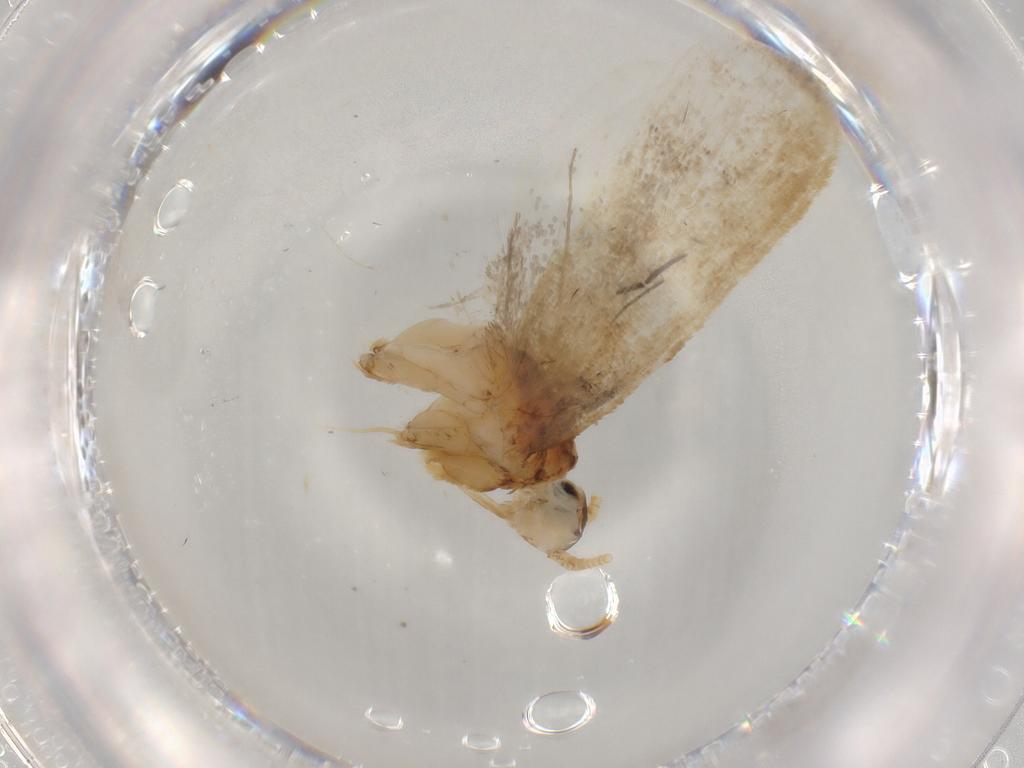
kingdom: Animalia
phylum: Arthropoda
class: Insecta
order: Lepidoptera
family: Lecithoceridae
